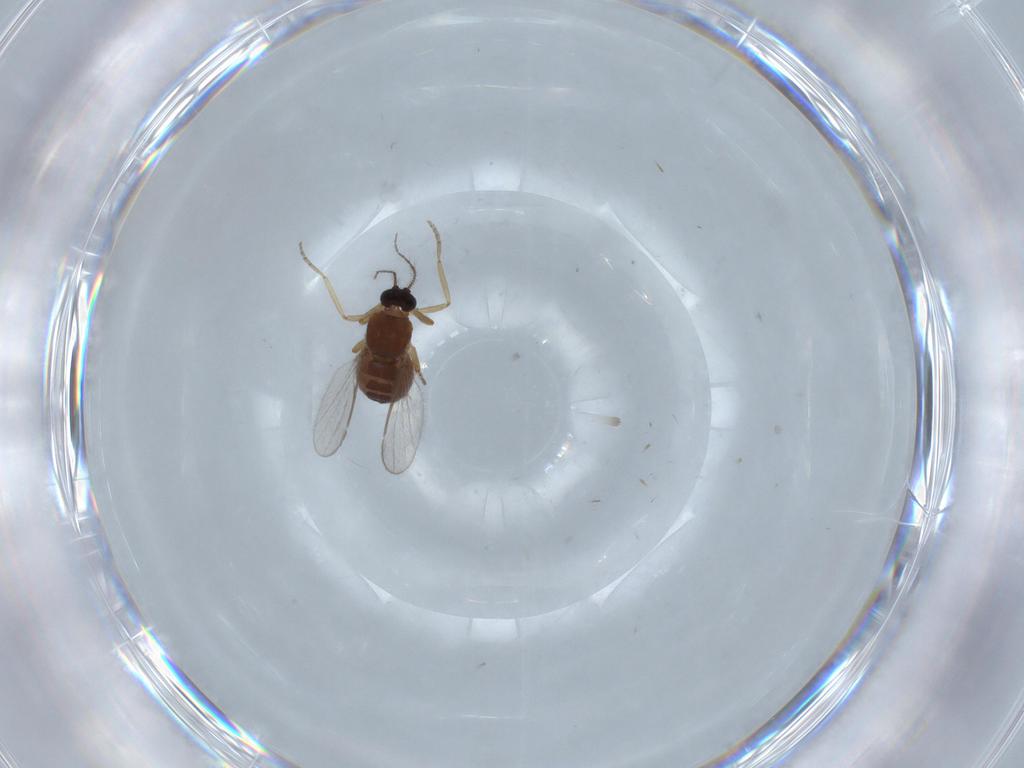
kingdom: Animalia
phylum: Arthropoda
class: Insecta
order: Diptera
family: Ceratopogonidae
